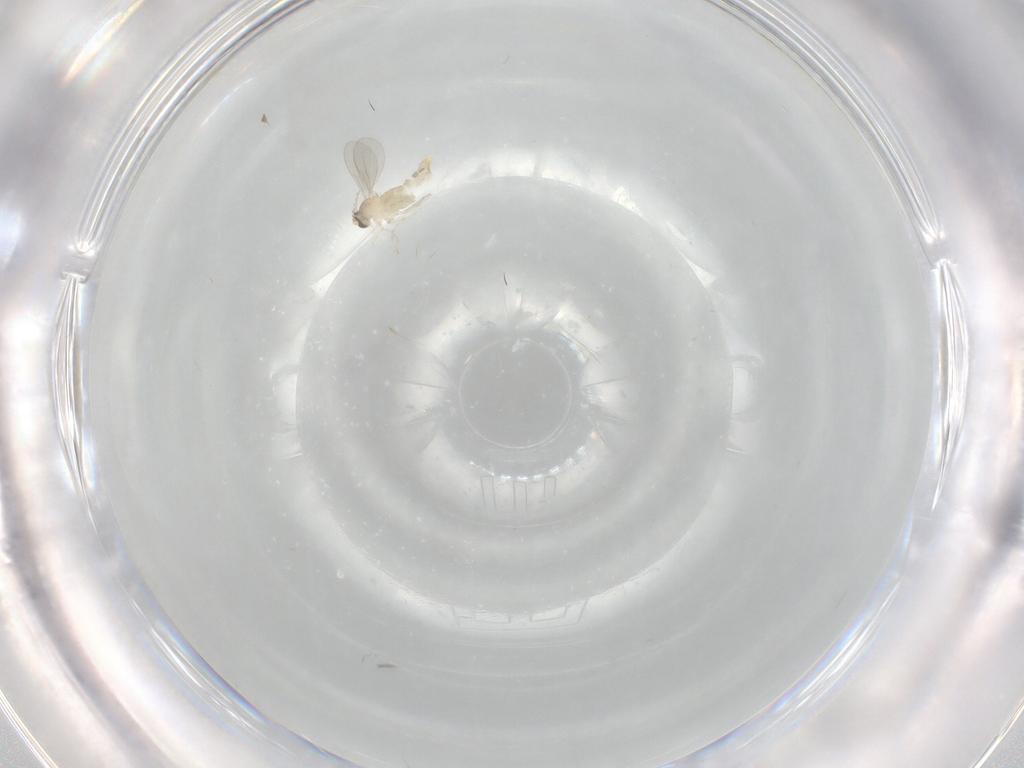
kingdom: Animalia
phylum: Arthropoda
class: Insecta
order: Diptera
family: Cecidomyiidae
